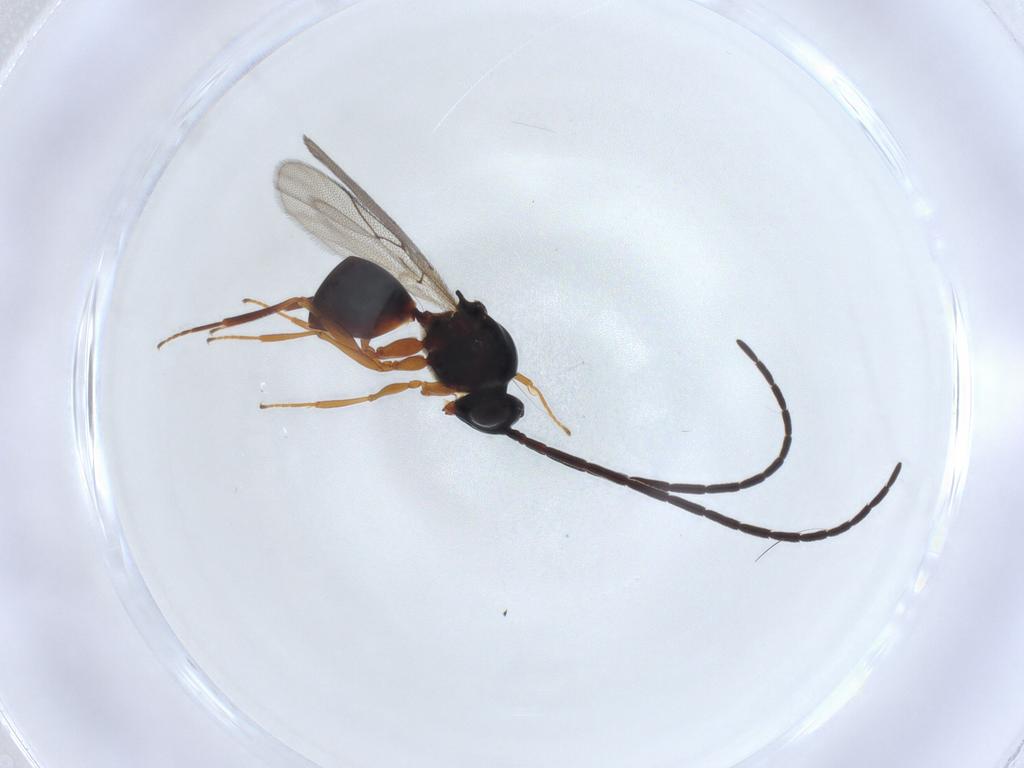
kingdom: Animalia
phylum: Arthropoda
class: Insecta
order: Hymenoptera
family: Figitidae
